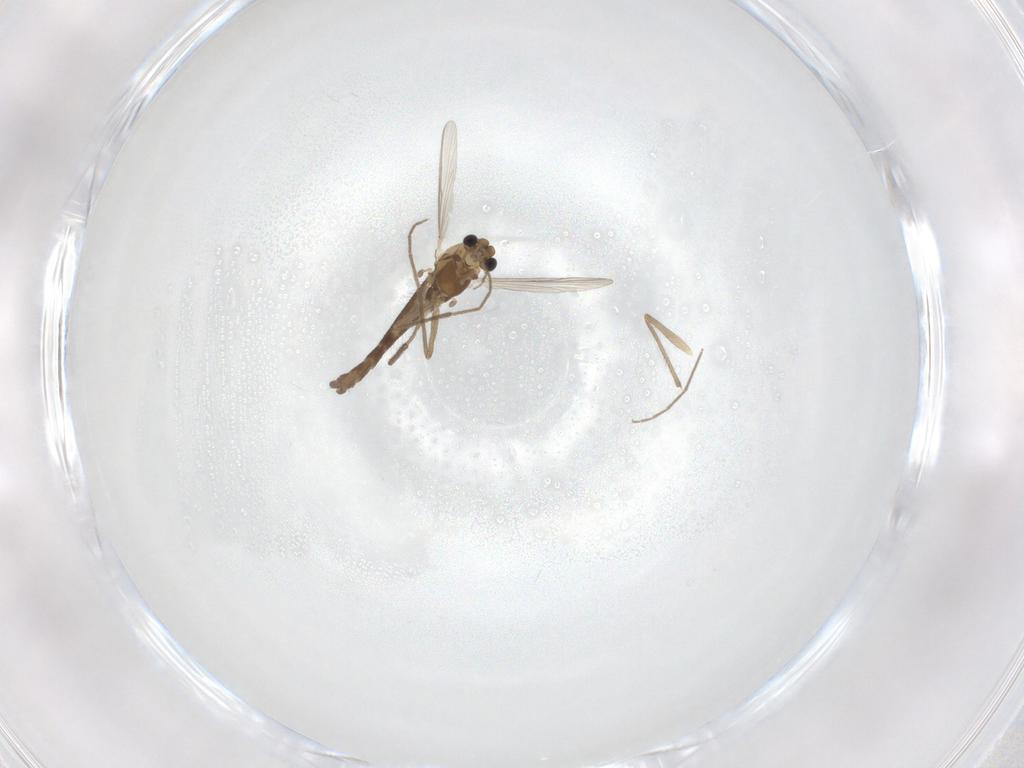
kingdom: Animalia
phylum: Arthropoda
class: Insecta
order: Diptera
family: Chironomidae
